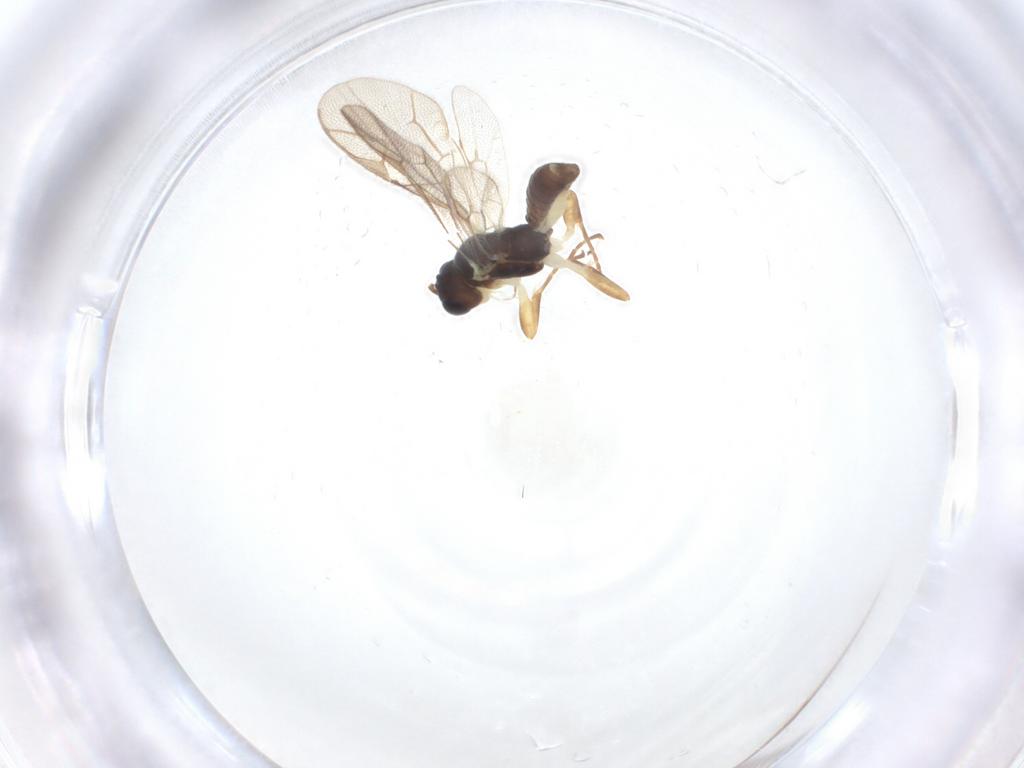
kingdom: Animalia
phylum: Arthropoda
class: Insecta
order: Hymenoptera
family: Ichneumonidae
